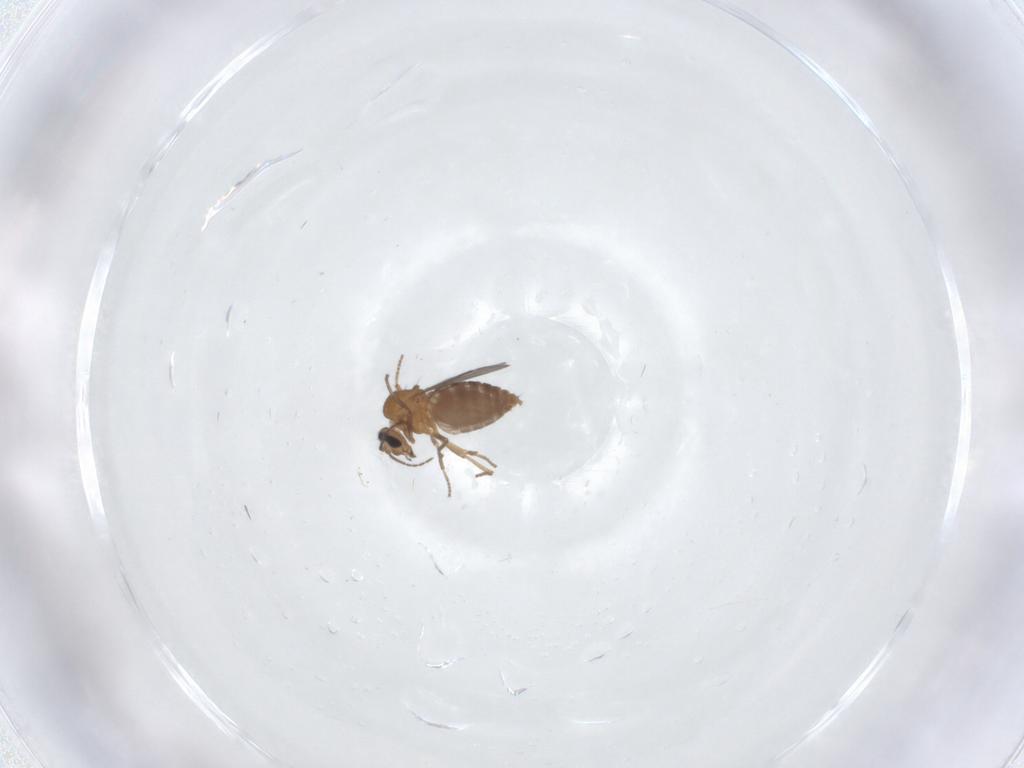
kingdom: Animalia
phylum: Arthropoda
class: Insecta
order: Diptera
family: Ceratopogonidae
